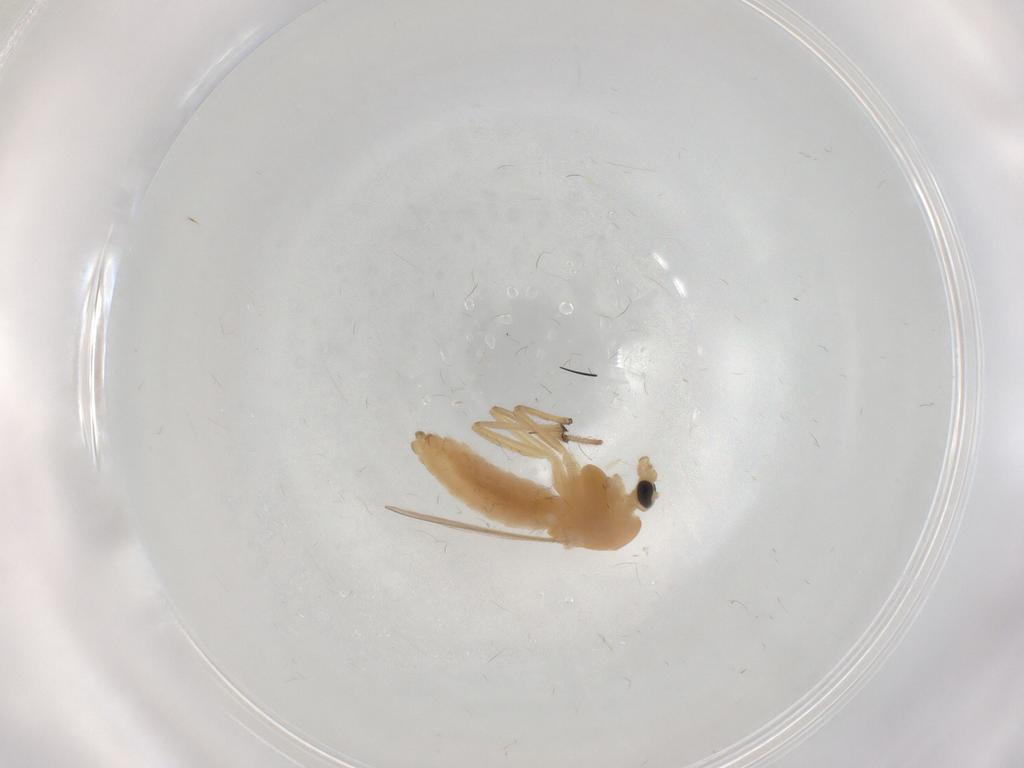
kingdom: Animalia
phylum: Arthropoda
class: Insecta
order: Diptera
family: Chironomidae
